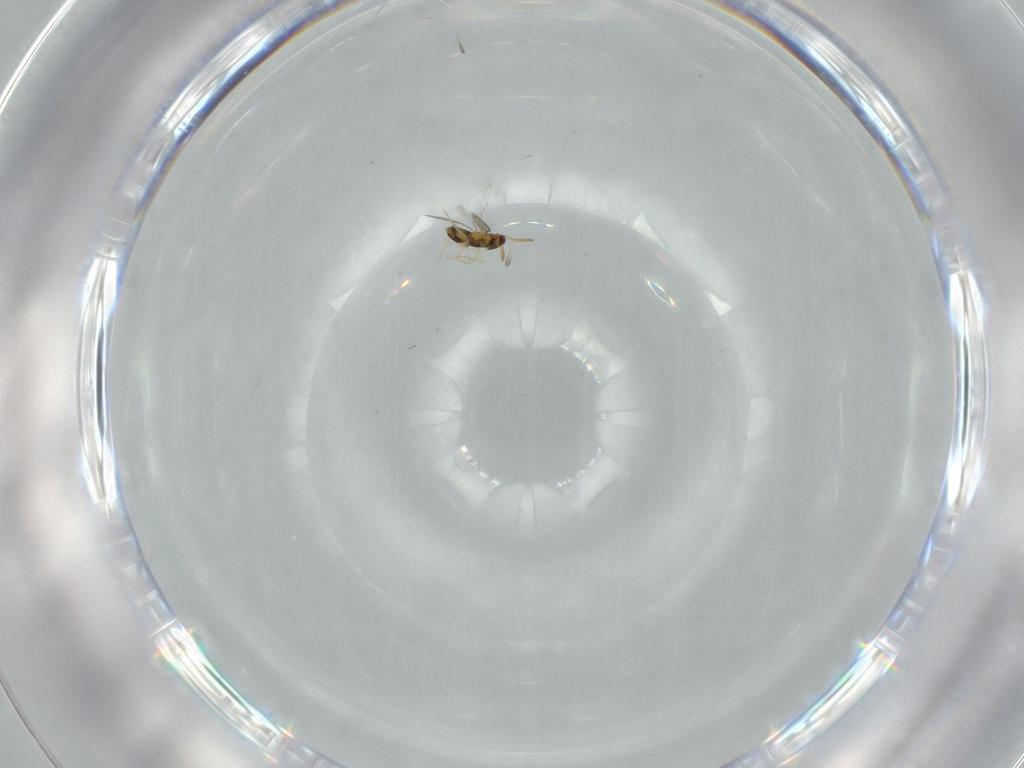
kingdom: Animalia
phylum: Arthropoda
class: Insecta
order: Hymenoptera
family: Aphelinidae
